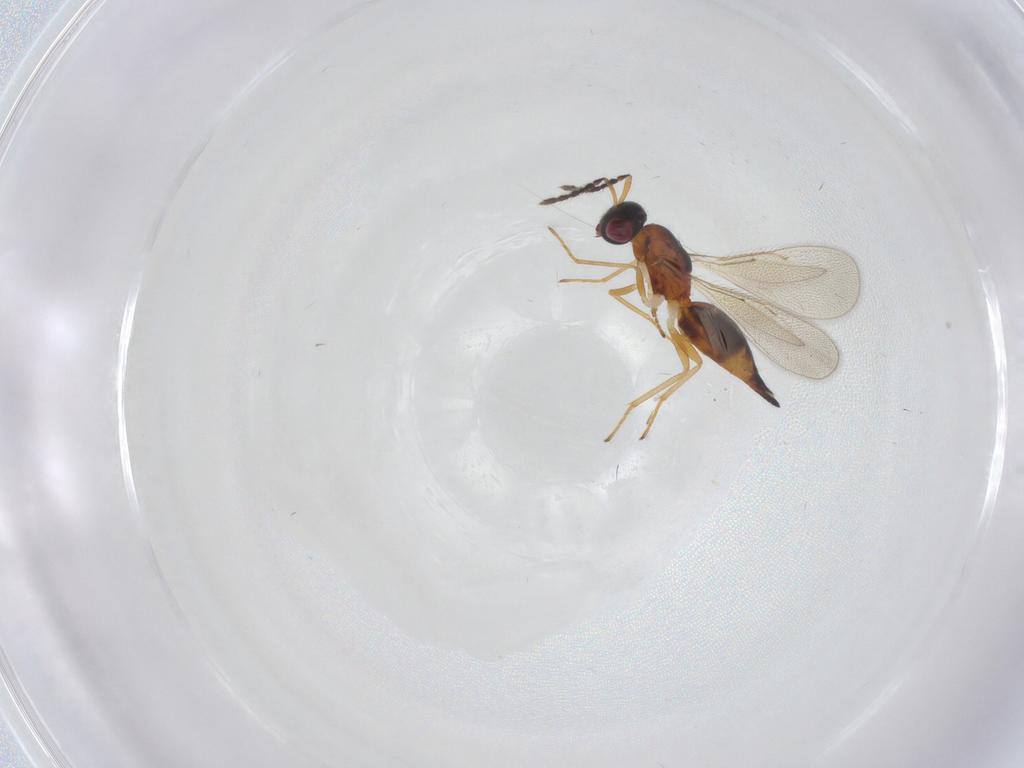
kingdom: Animalia
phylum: Arthropoda
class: Insecta
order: Hymenoptera
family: Eulophidae
